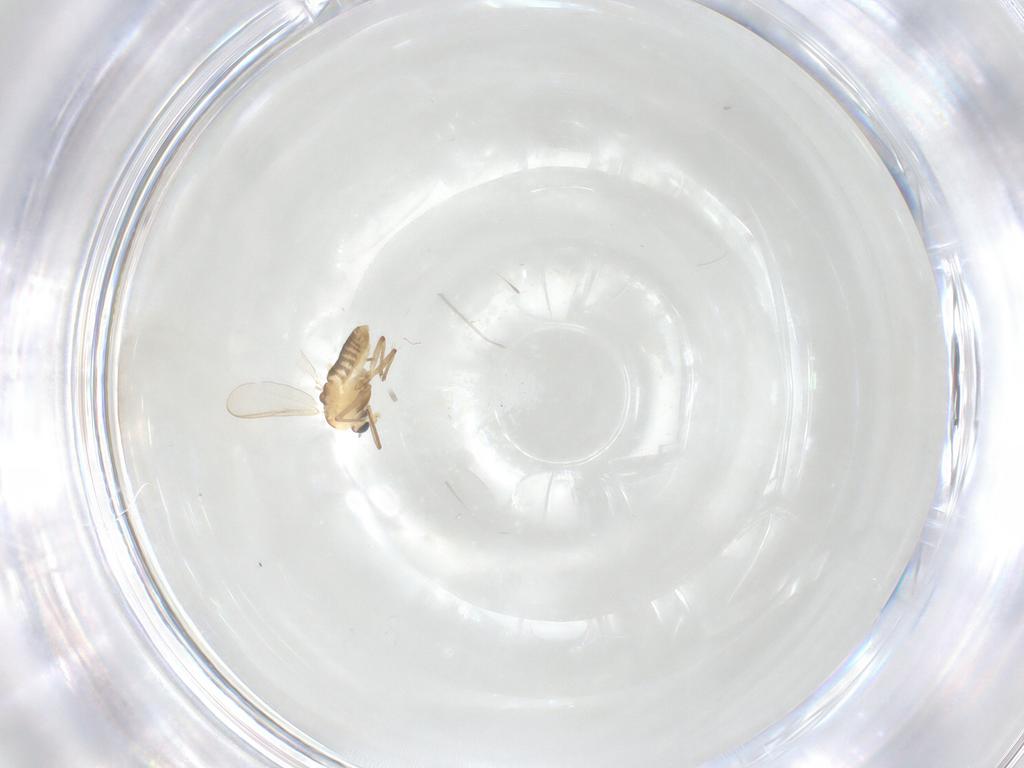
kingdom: Animalia
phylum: Arthropoda
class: Insecta
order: Diptera
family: Chironomidae
